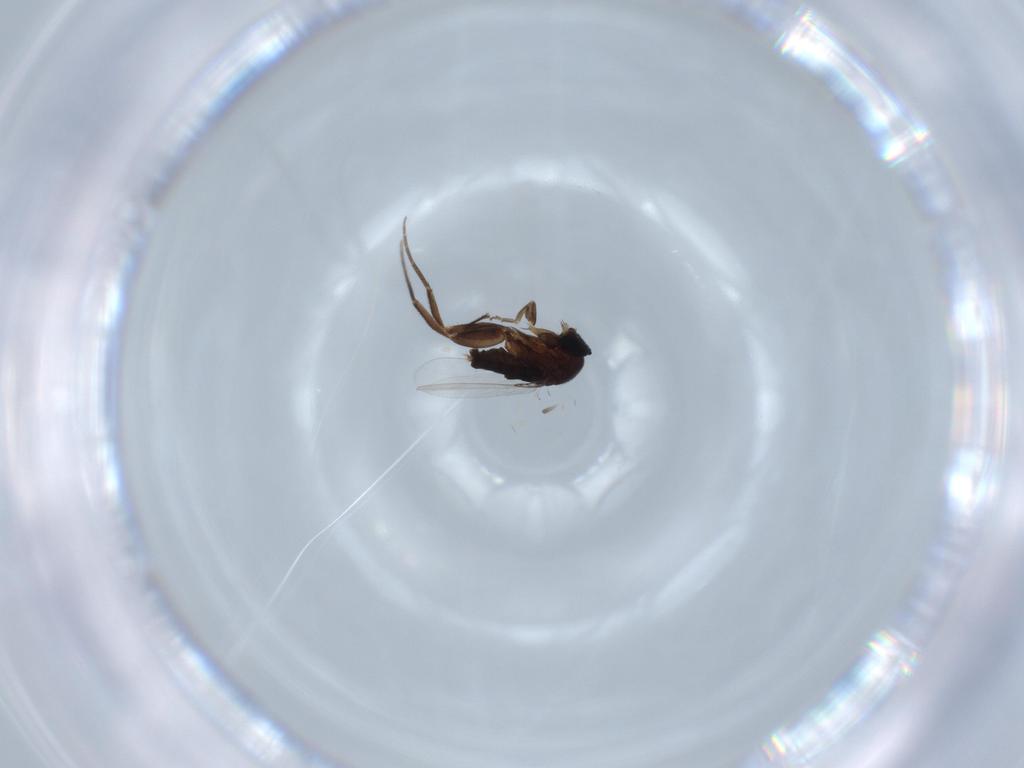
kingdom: Animalia
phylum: Arthropoda
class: Insecta
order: Diptera
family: Phoridae
